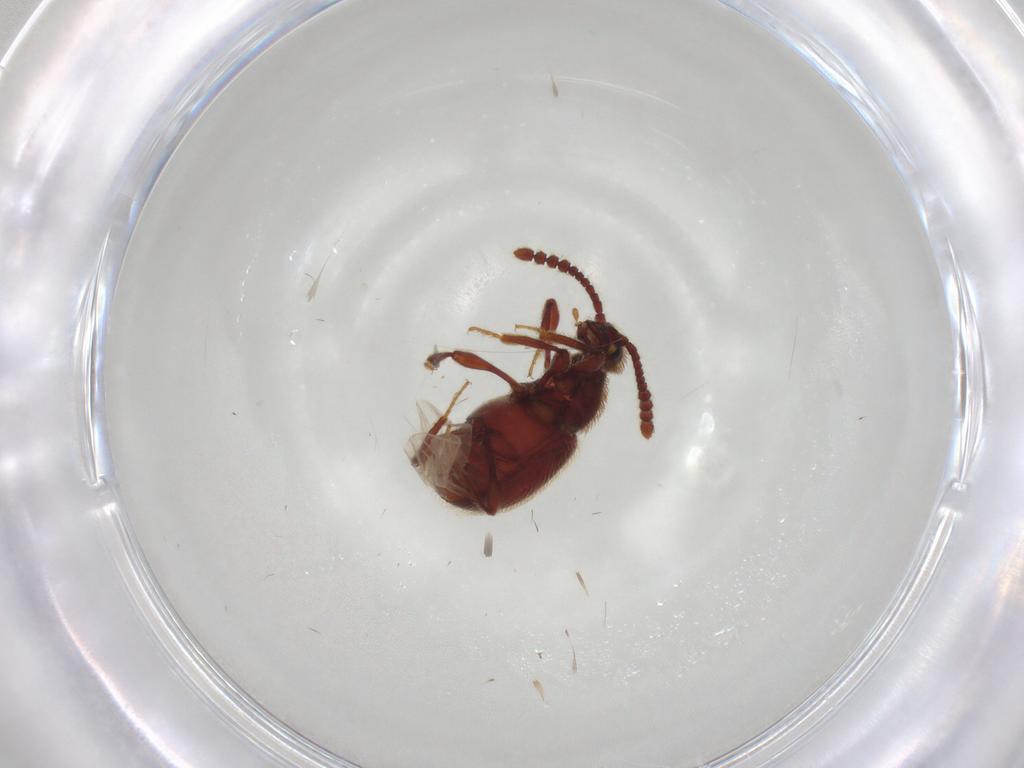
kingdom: Animalia
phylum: Arthropoda
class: Insecta
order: Coleoptera
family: Staphylinidae
